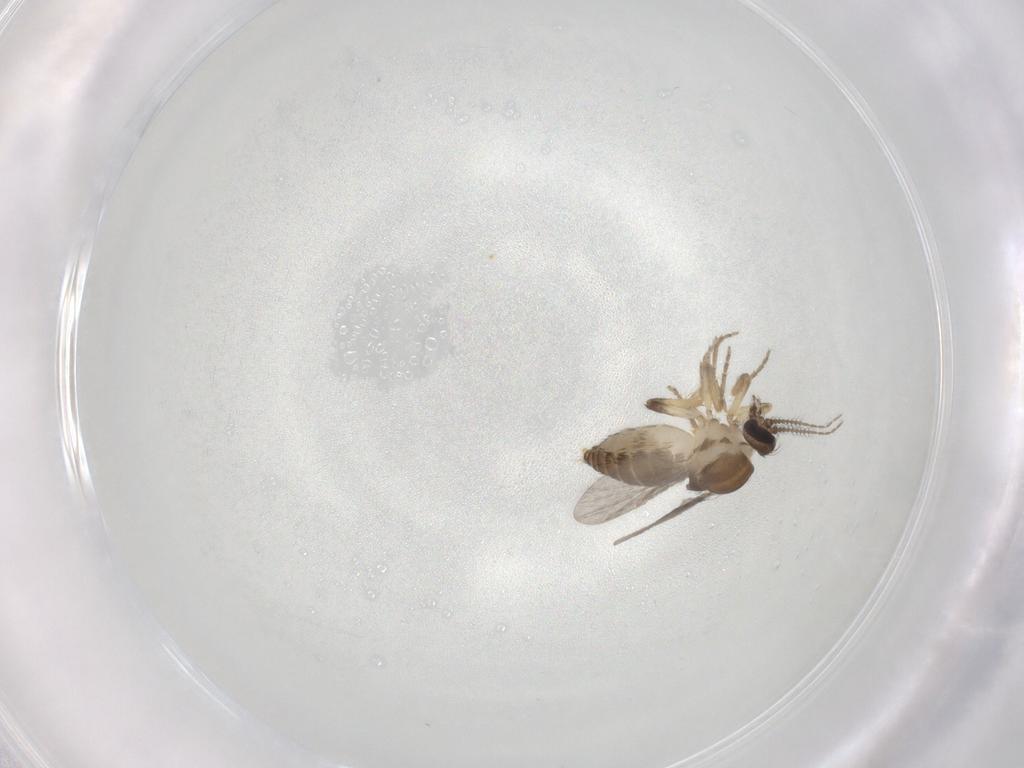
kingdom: Animalia
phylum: Arthropoda
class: Insecta
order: Diptera
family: Ceratopogonidae
